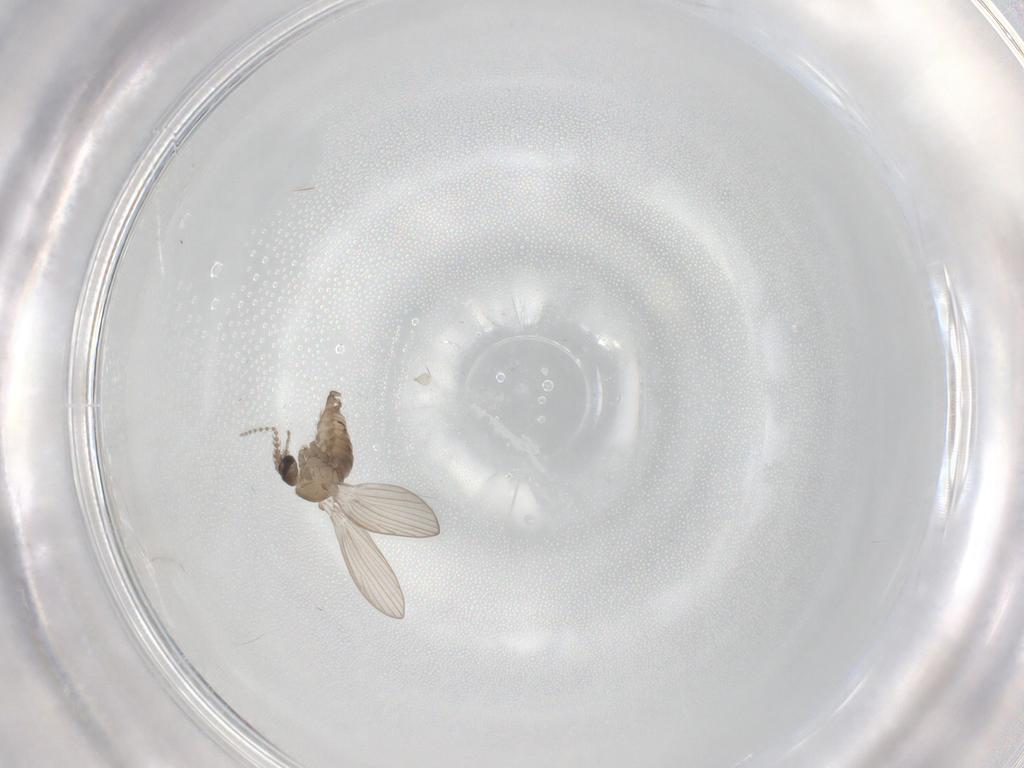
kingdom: Animalia
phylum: Arthropoda
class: Insecta
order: Diptera
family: Psychodidae
